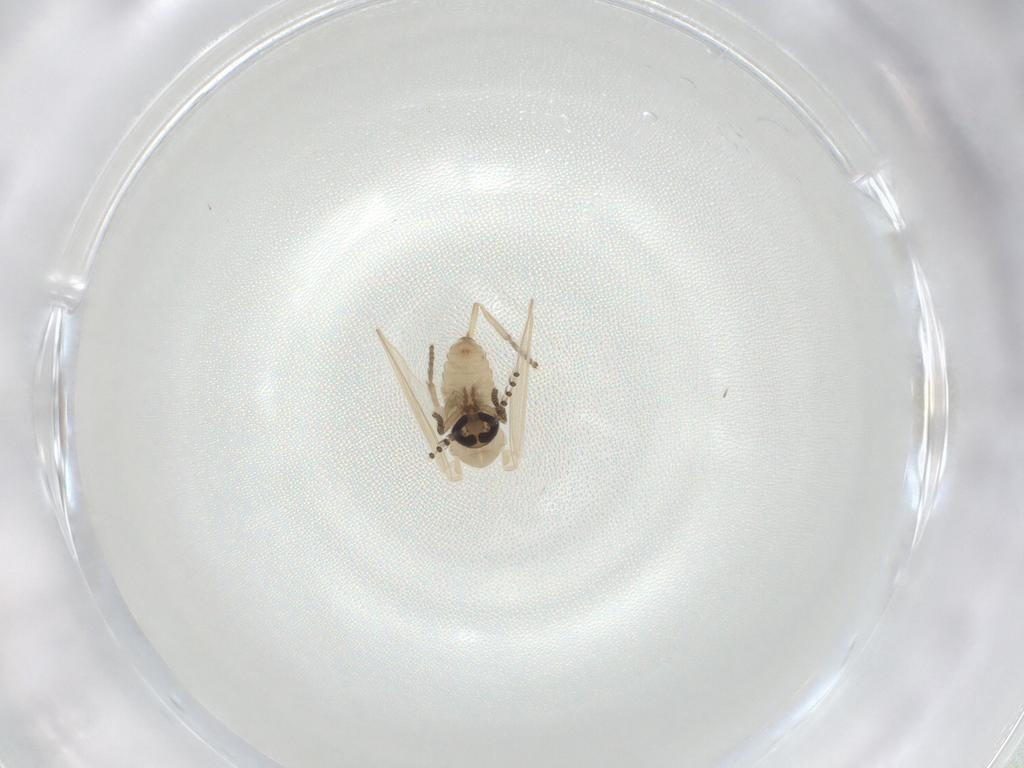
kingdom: Animalia
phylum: Arthropoda
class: Insecta
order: Diptera
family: Psychodidae
